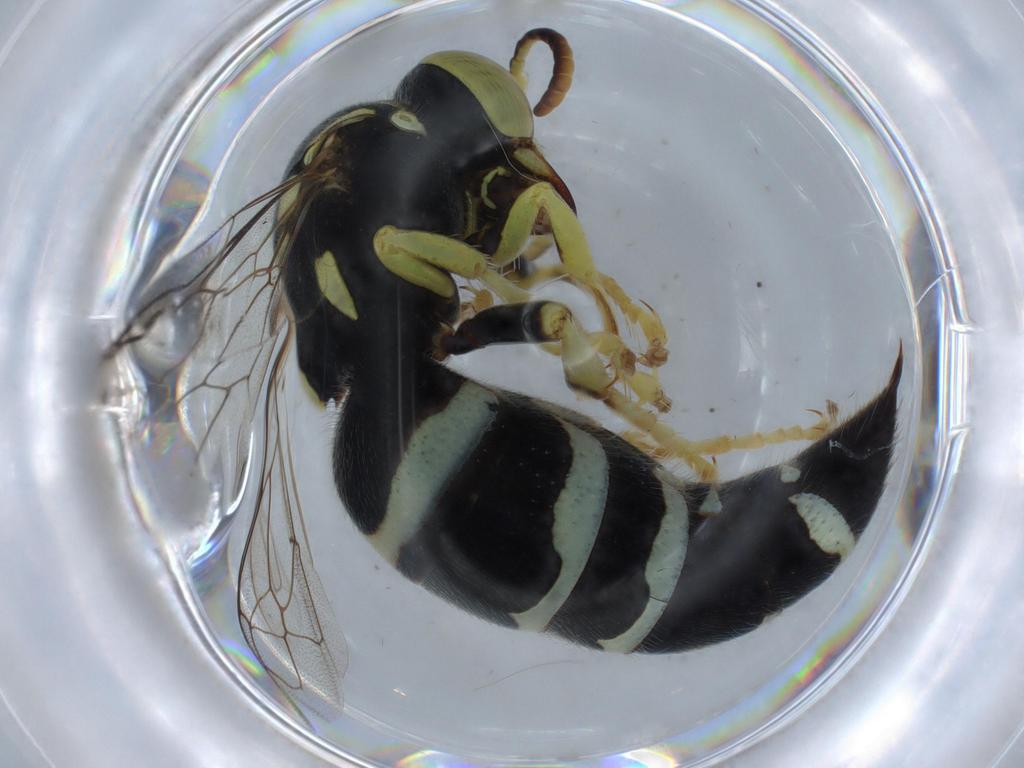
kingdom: Animalia
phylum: Arthropoda
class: Insecta
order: Hymenoptera
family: Crabronidae
